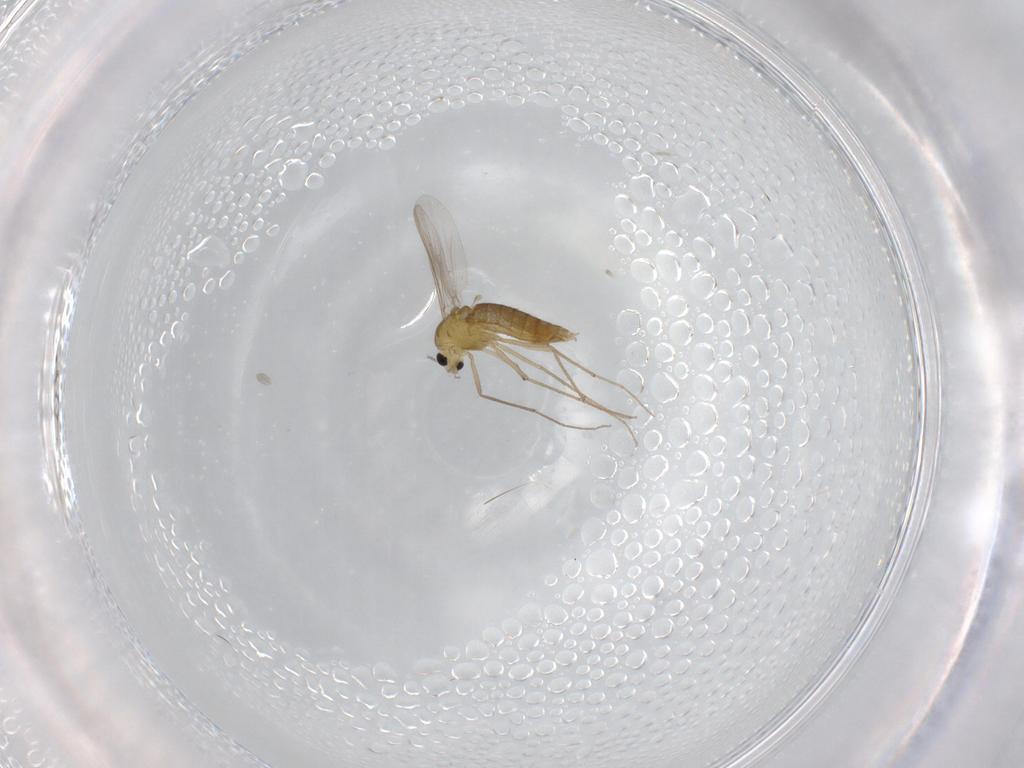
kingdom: Animalia
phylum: Arthropoda
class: Insecta
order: Diptera
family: Chironomidae
